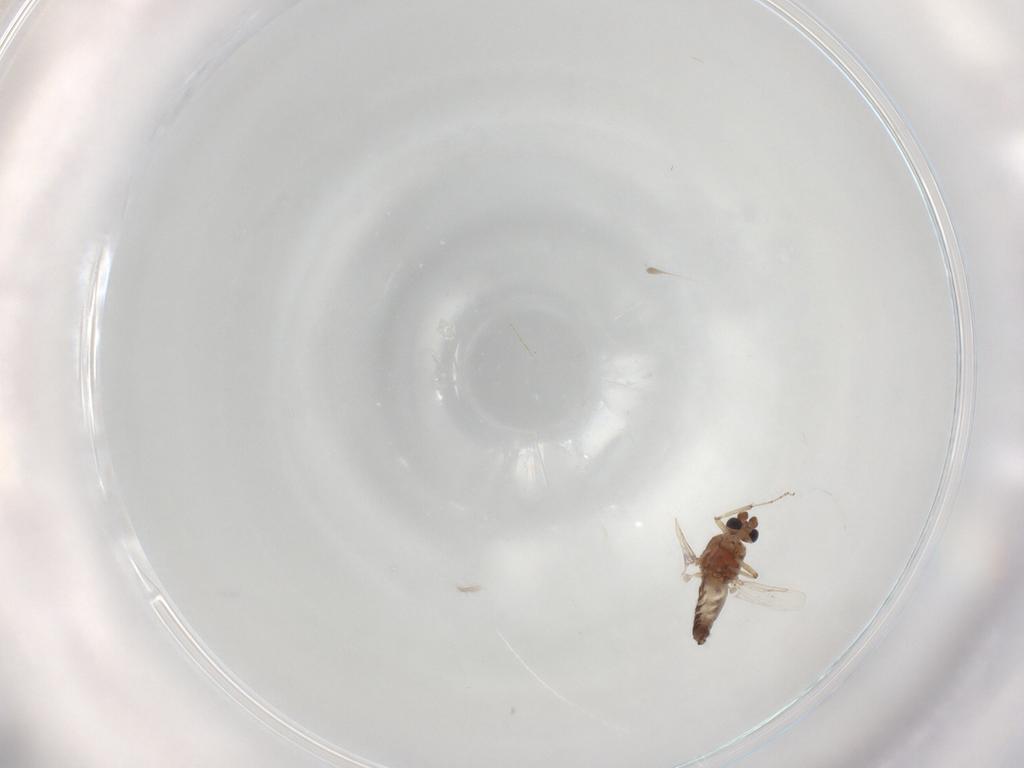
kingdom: Animalia
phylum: Arthropoda
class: Insecta
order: Diptera
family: Ceratopogonidae
